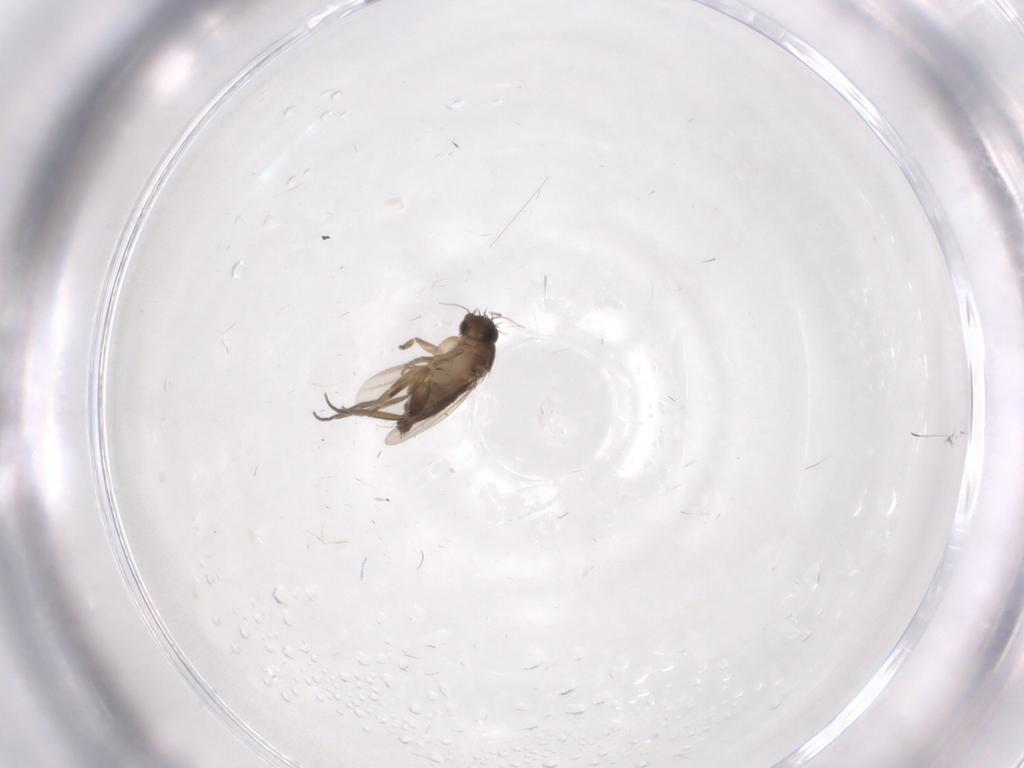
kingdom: Animalia
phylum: Arthropoda
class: Insecta
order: Diptera
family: Phoridae
